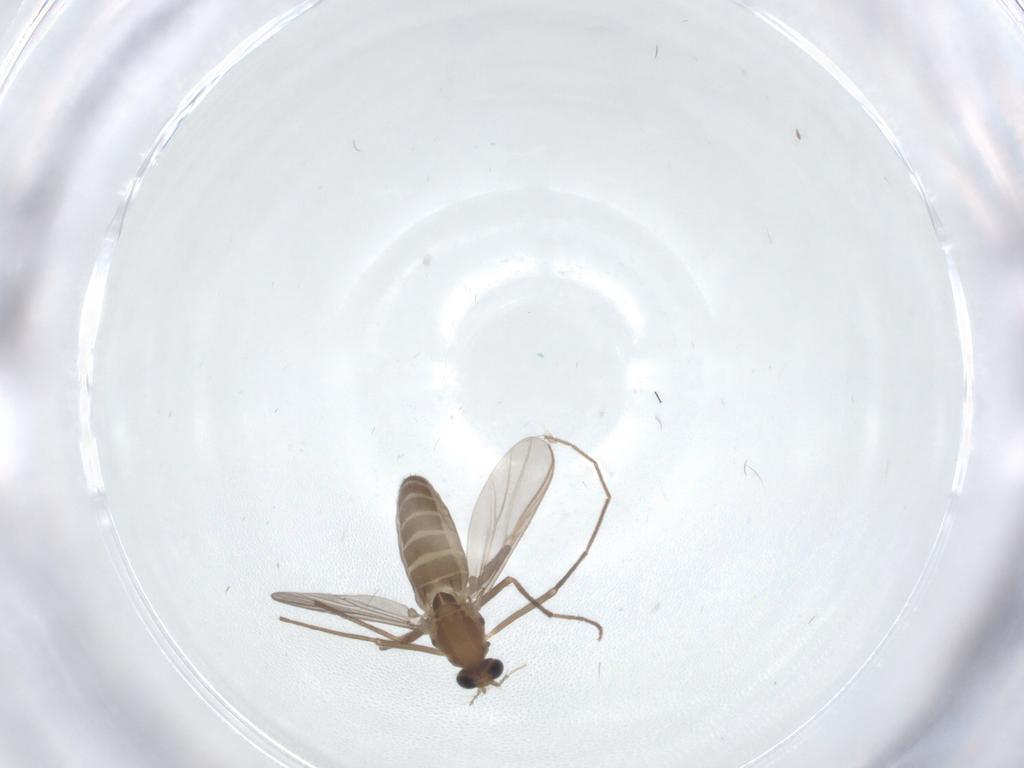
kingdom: Animalia
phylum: Arthropoda
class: Insecta
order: Diptera
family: Chironomidae
